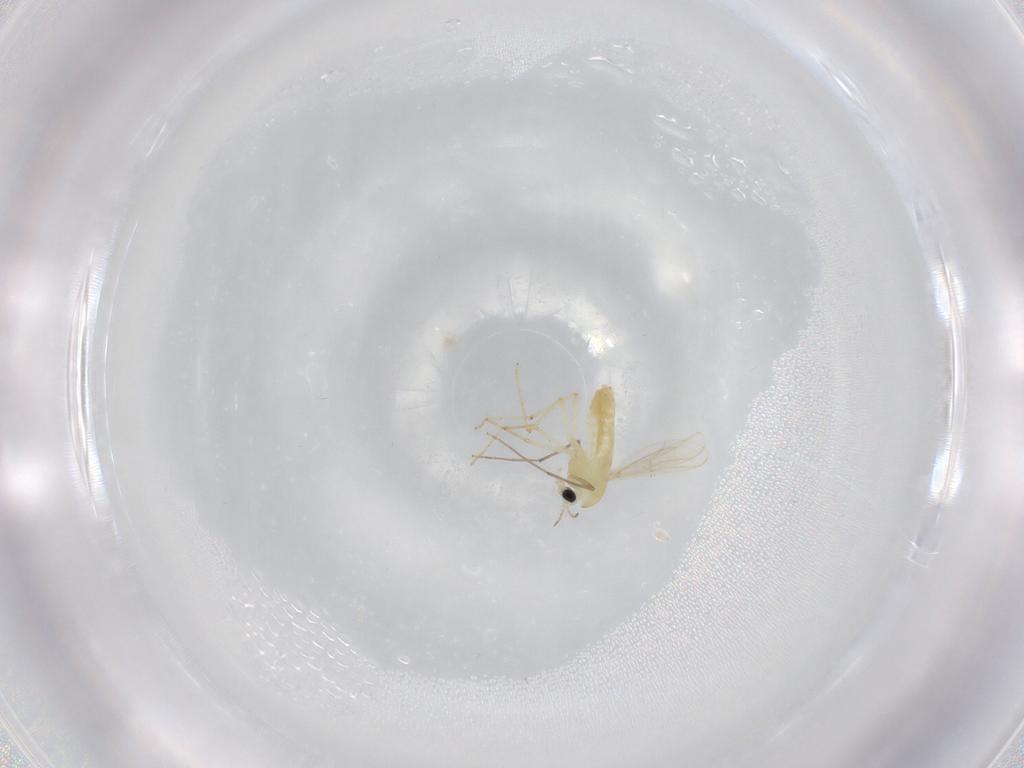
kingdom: Animalia
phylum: Arthropoda
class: Insecta
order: Diptera
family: Chironomidae
